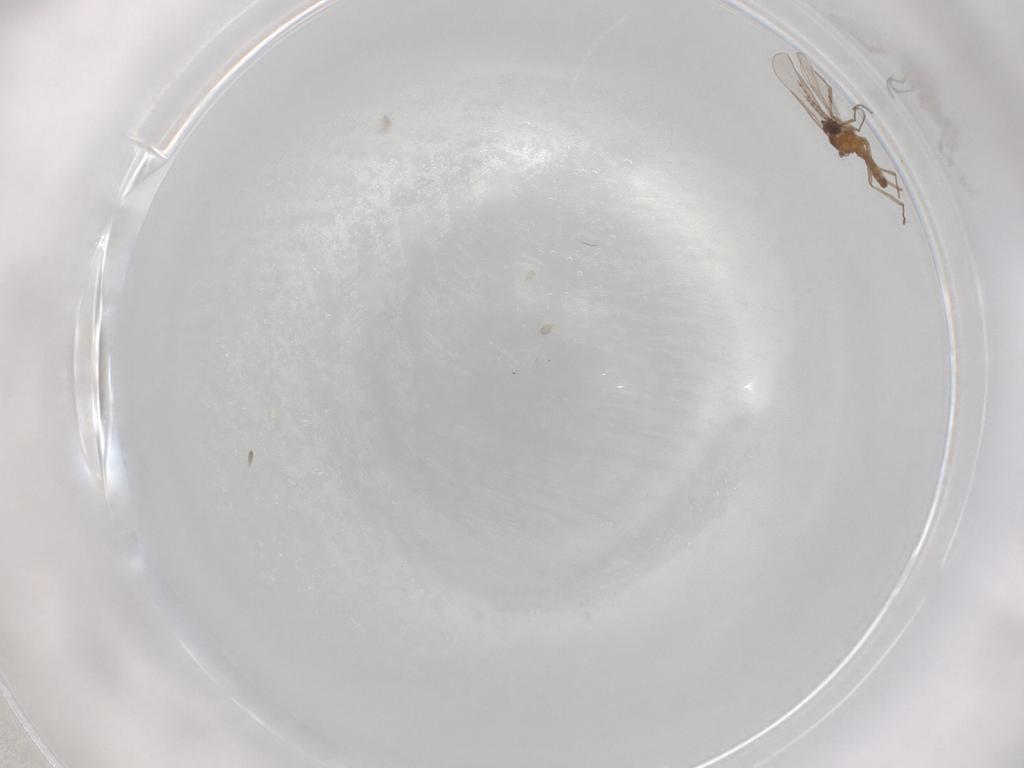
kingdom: Animalia
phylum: Arthropoda
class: Insecta
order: Diptera
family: Cecidomyiidae
